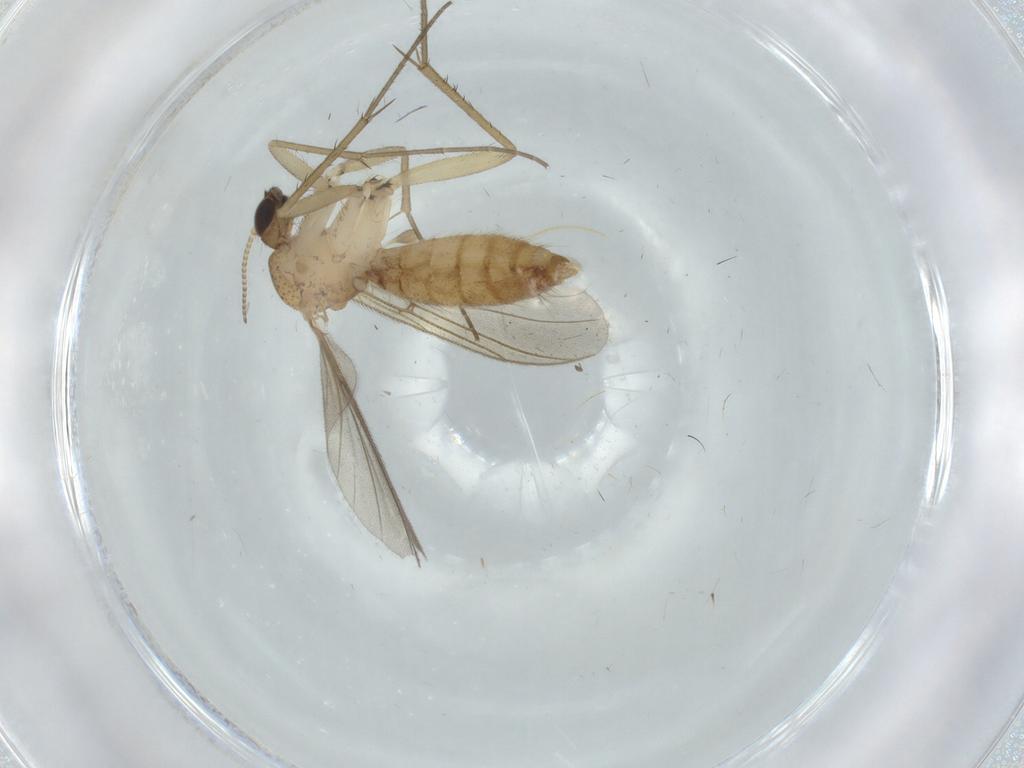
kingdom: Animalia
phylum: Arthropoda
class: Insecta
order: Diptera
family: Mycetophilidae
